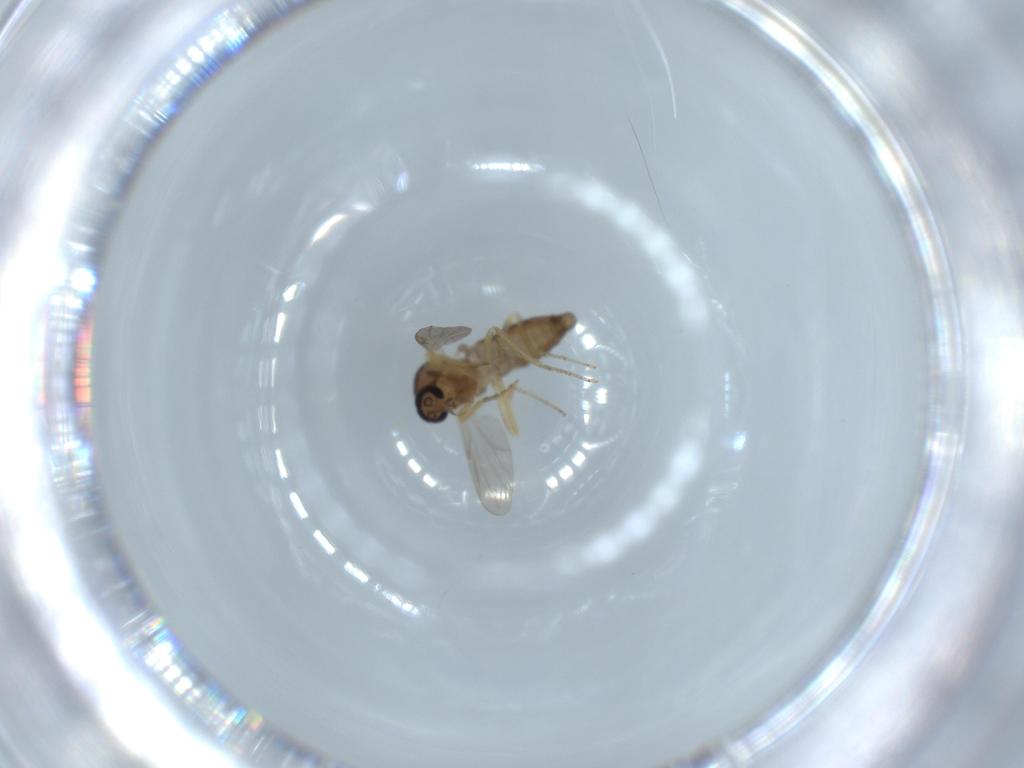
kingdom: Animalia
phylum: Arthropoda
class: Insecta
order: Diptera
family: Ceratopogonidae
